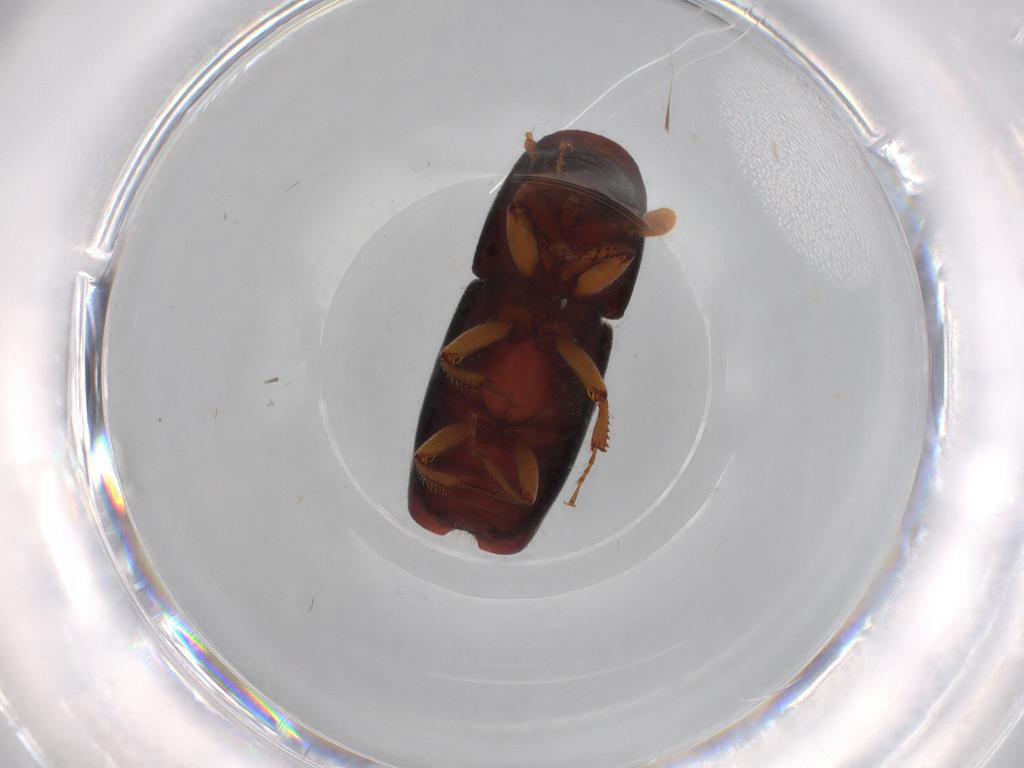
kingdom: Animalia
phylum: Arthropoda
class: Insecta
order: Coleoptera
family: Curculionidae
